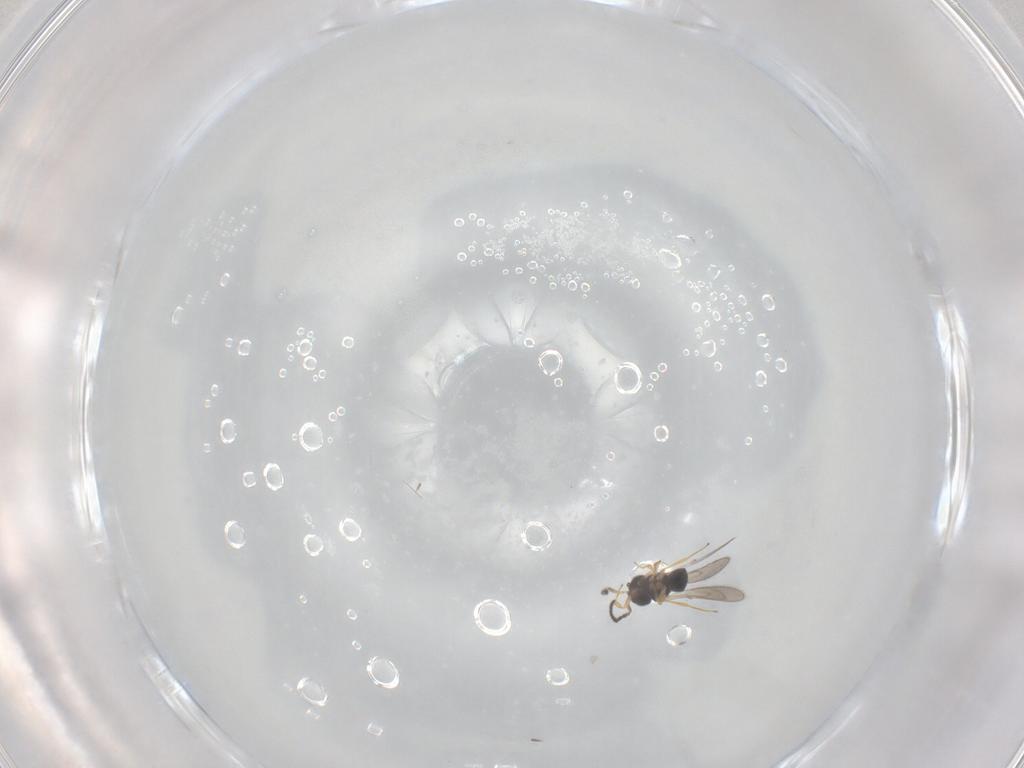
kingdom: Animalia
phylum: Arthropoda
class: Insecta
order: Hymenoptera
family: Scelionidae
